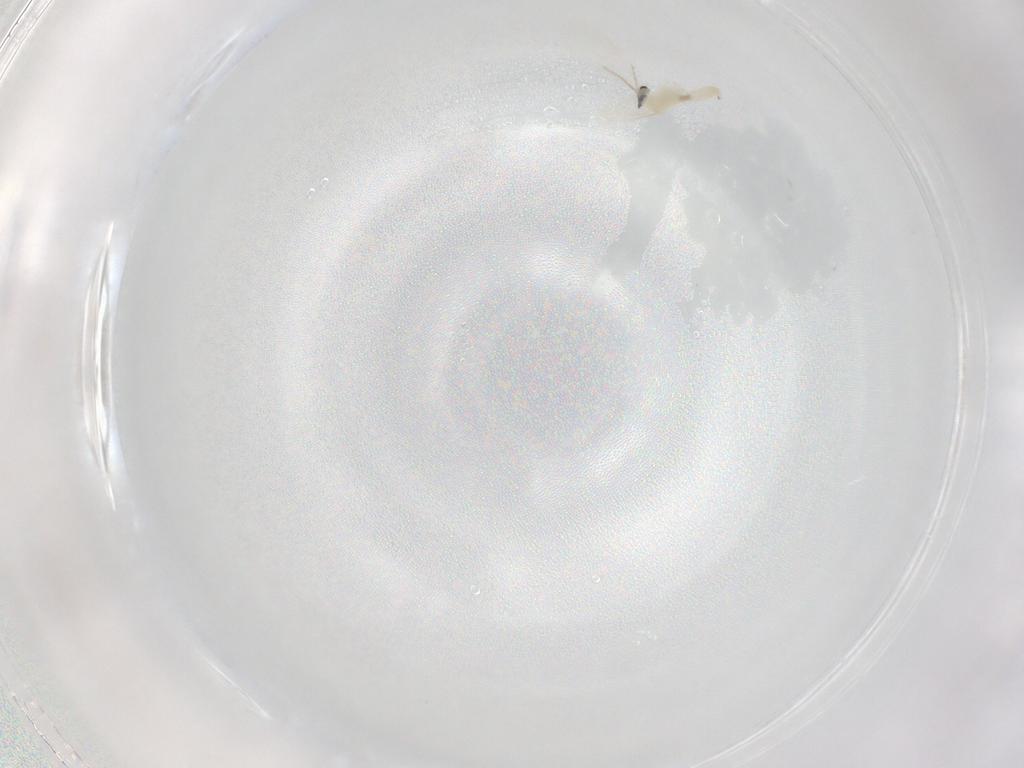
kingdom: Animalia
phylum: Arthropoda
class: Insecta
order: Diptera
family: Cecidomyiidae
